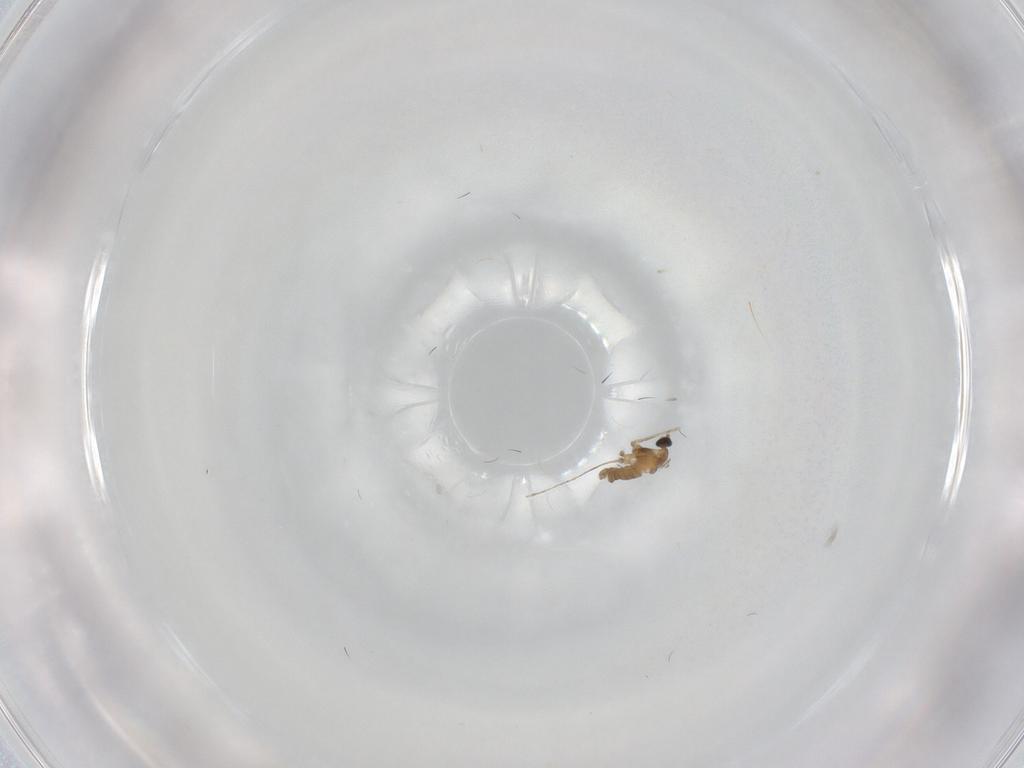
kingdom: Animalia
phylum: Arthropoda
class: Insecta
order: Diptera
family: Cecidomyiidae
